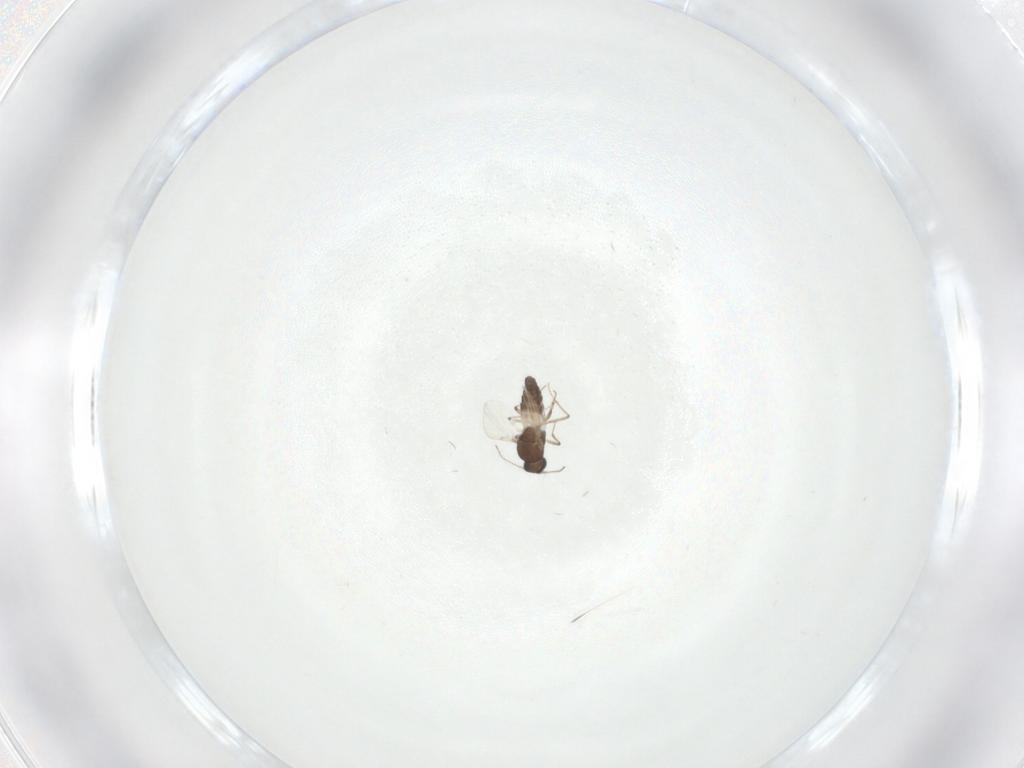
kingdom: Animalia
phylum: Arthropoda
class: Insecta
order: Diptera
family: Ceratopogonidae
